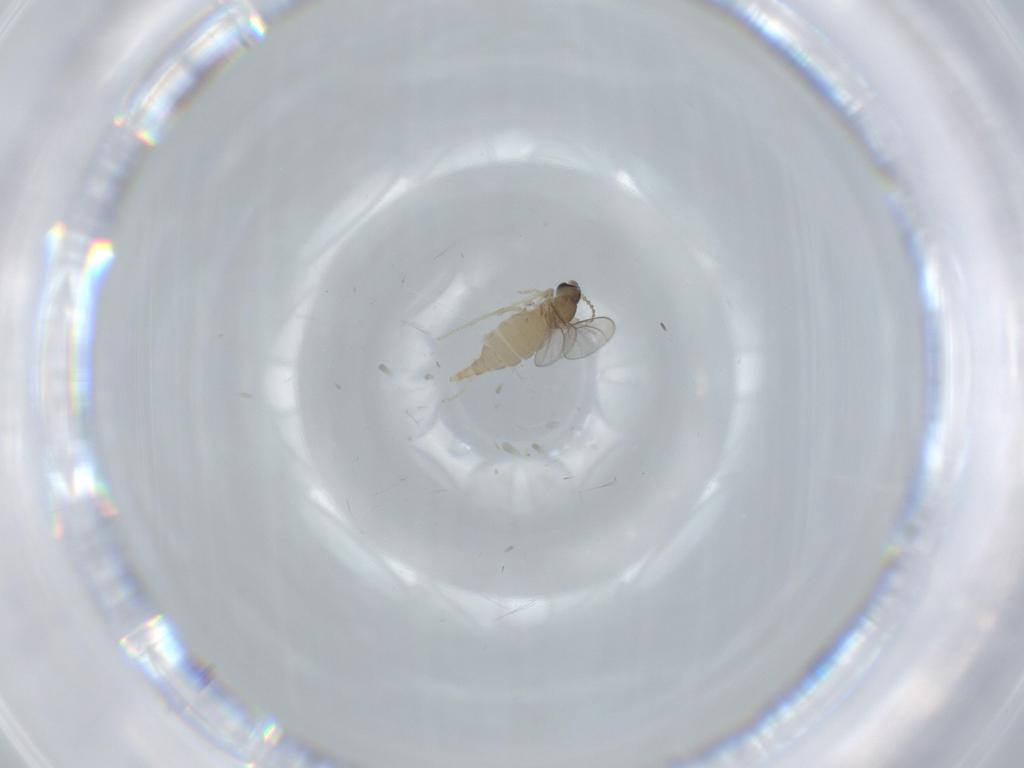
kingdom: Animalia
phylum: Arthropoda
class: Insecta
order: Diptera
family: Cecidomyiidae
